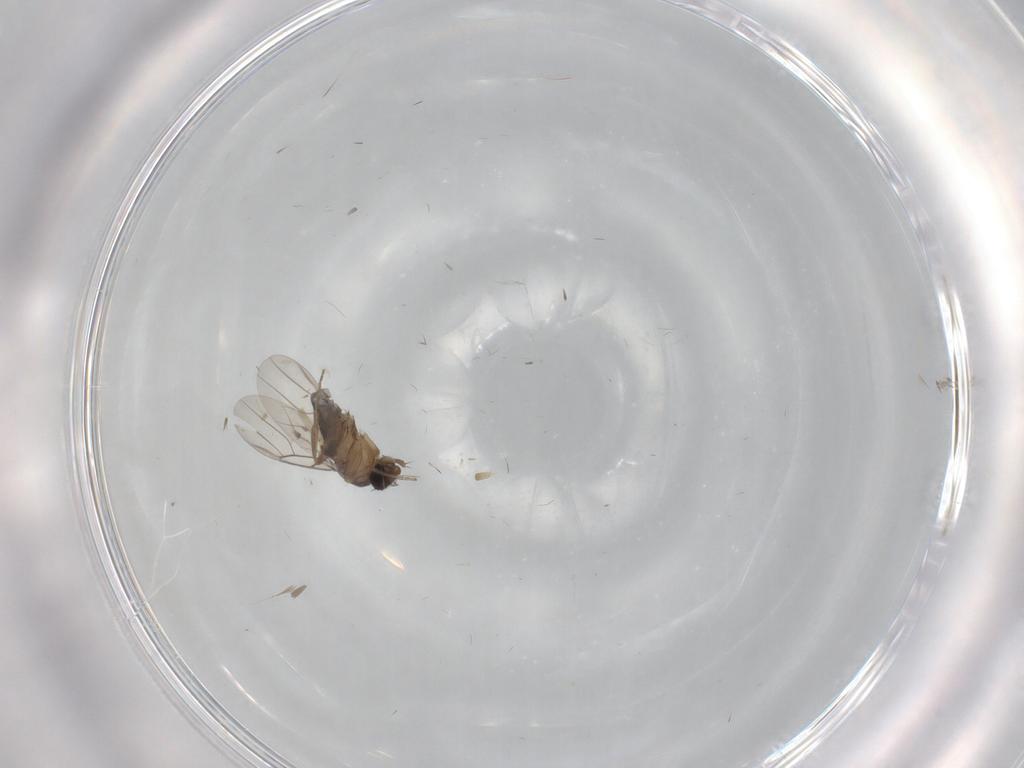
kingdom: Animalia
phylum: Arthropoda
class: Insecta
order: Diptera
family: Phoridae
